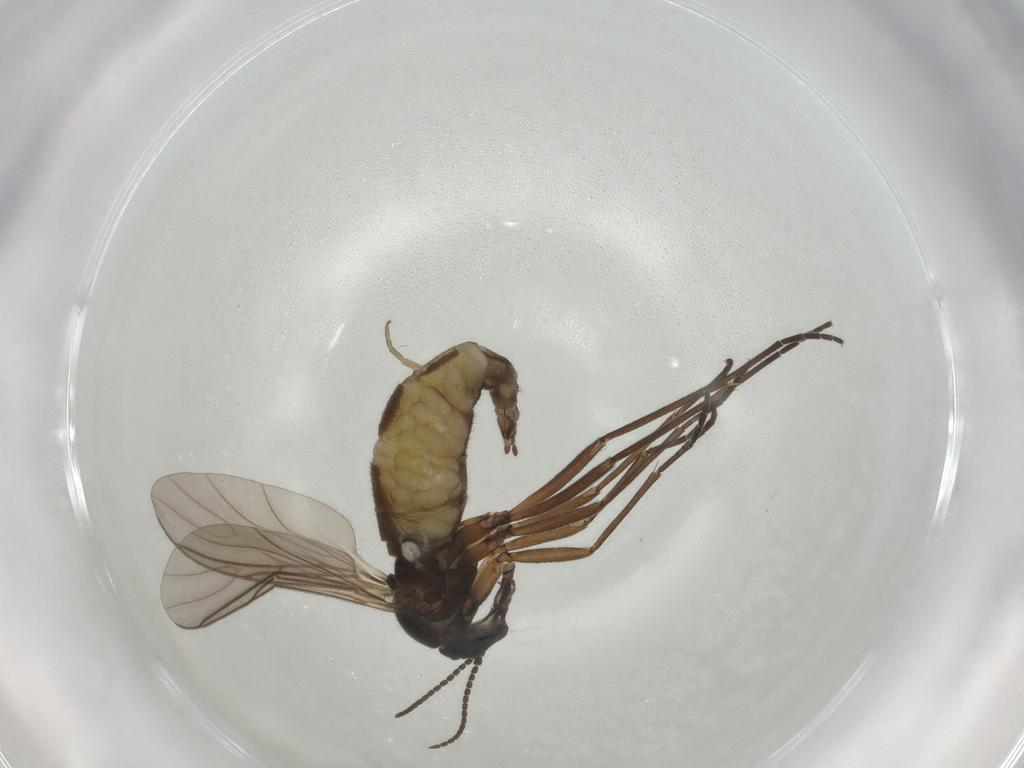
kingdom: Animalia
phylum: Arthropoda
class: Insecta
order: Diptera
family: Sciaridae
